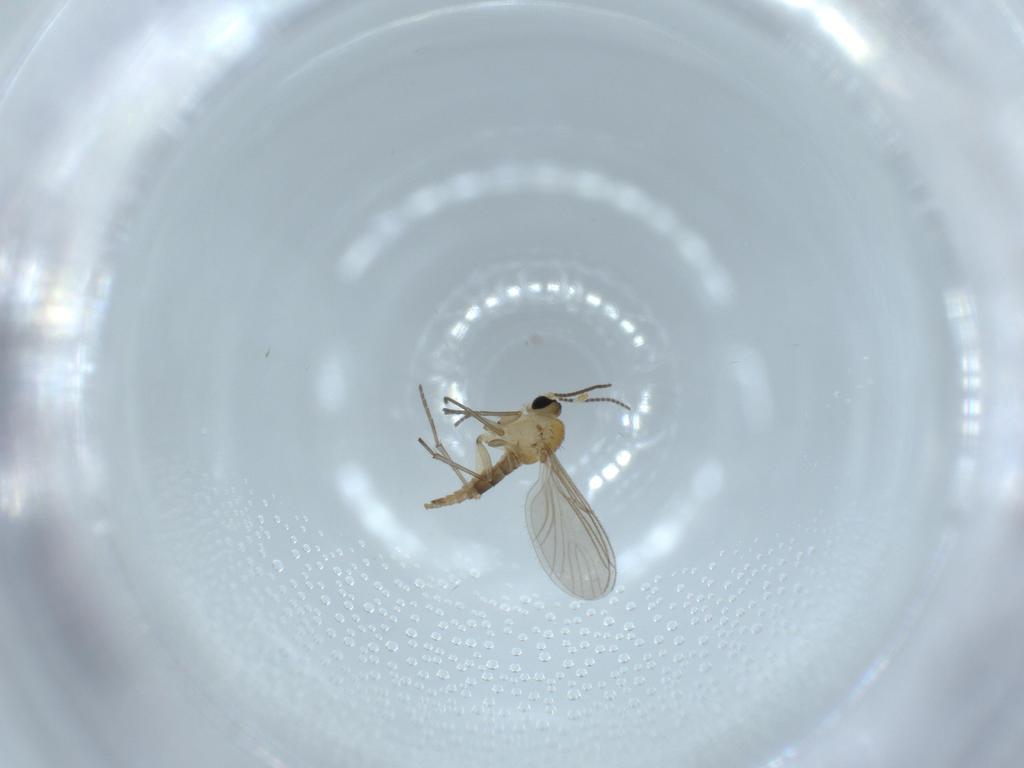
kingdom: Animalia
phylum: Arthropoda
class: Insecta
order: Diptera
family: Sciaridae
